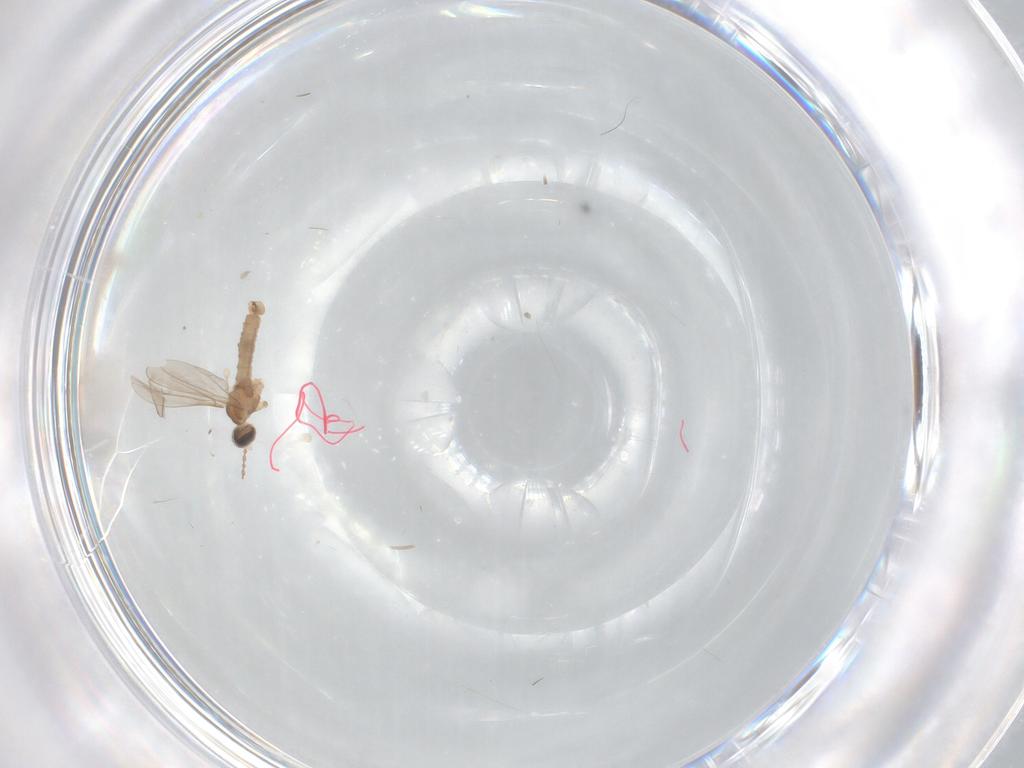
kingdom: Animalia
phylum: Arthropoda
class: Insecta
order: Diptera
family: Cecidomyiidae
